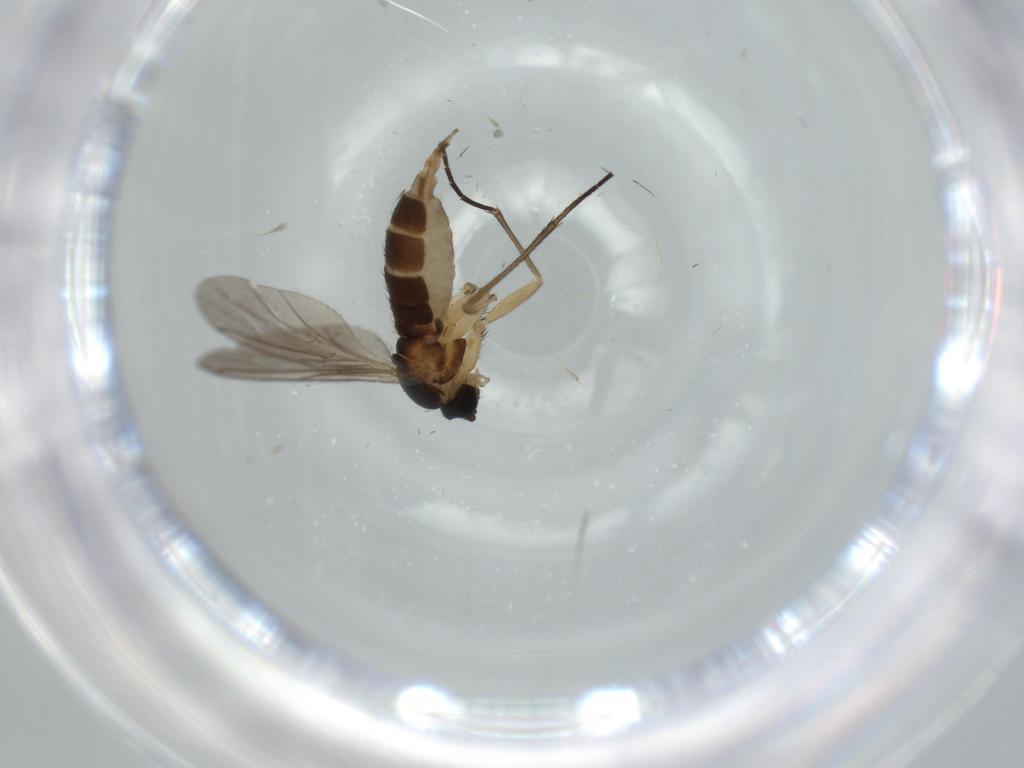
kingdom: Animalia
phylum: Arthropoda
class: Insecta
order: Diptera
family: Sciaridae
